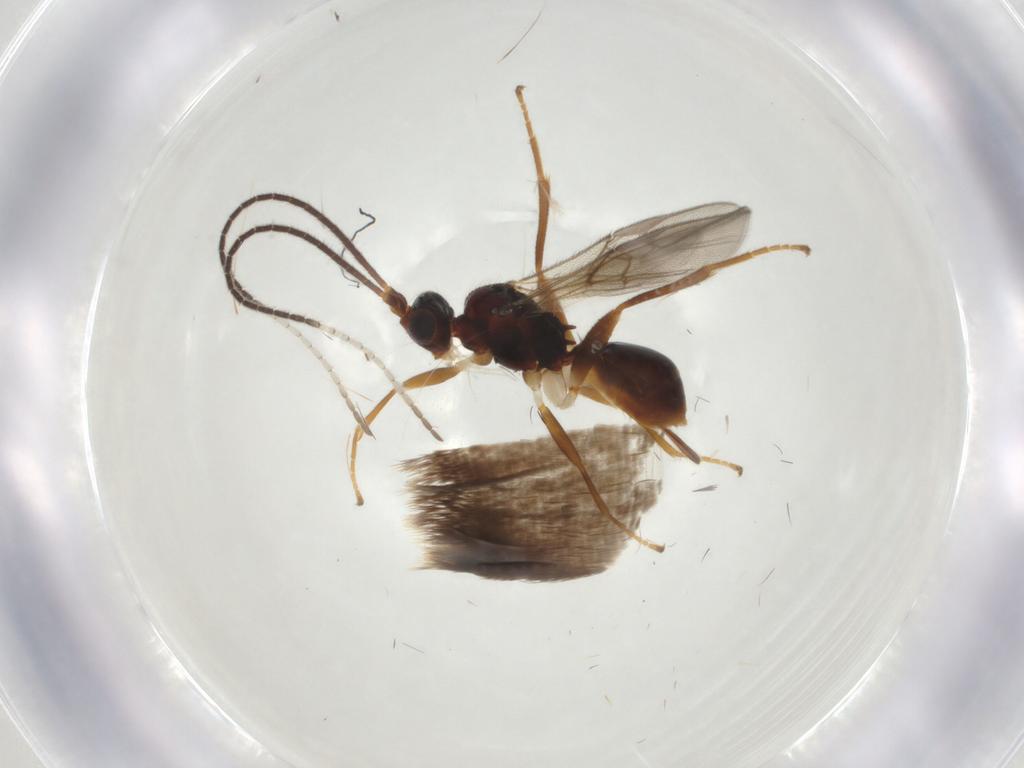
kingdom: Animalia
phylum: Arthropoda
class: Insecta
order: Hymenoptera
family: Braconidae
